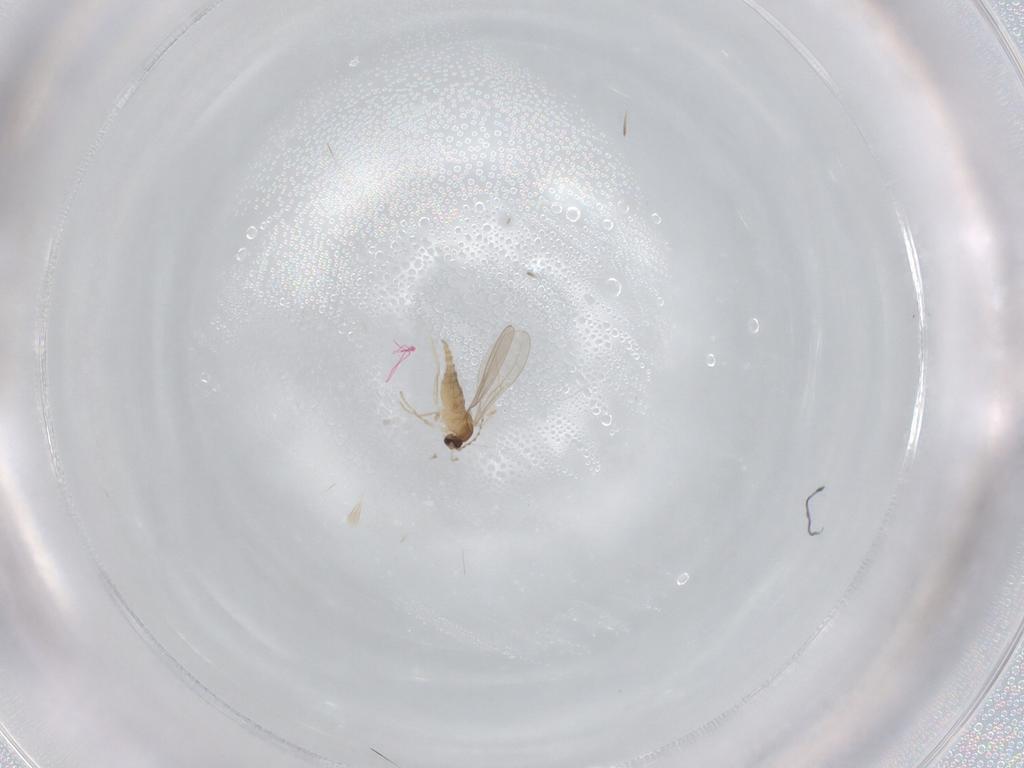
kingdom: Animalia
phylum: Arthropoda
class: Insecta
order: Diptera
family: Cecidomyiidae
